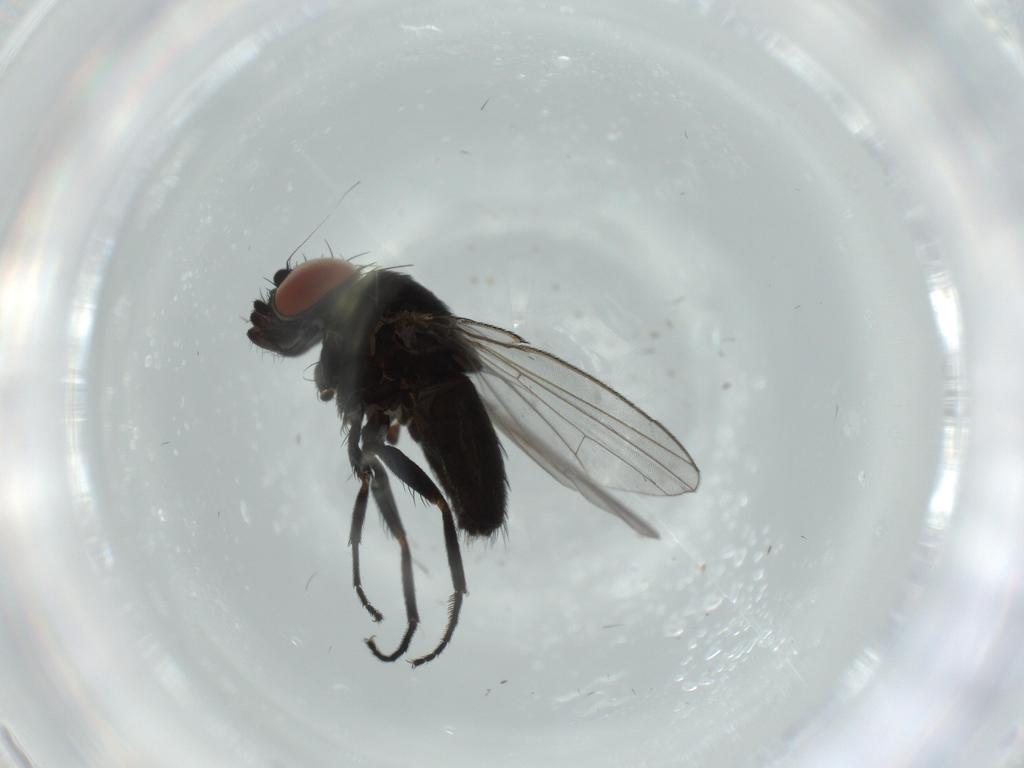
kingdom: Animalia
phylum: Arthropoda
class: Insecta
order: Diptera
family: Milichiidae
